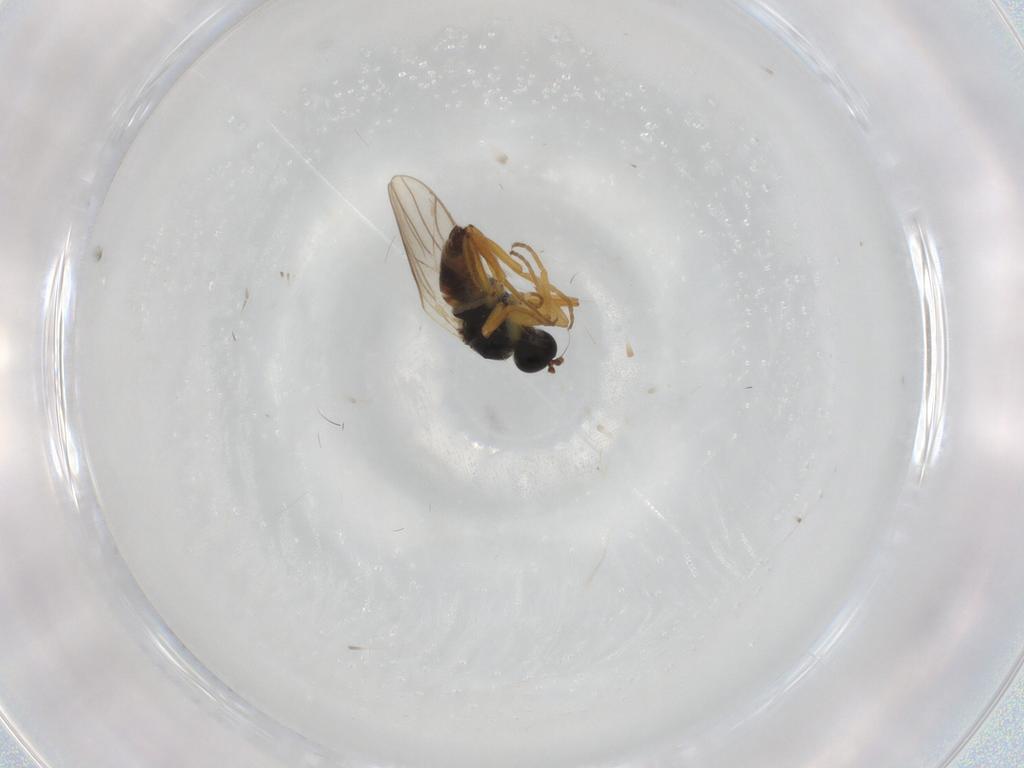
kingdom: Animalia
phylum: Arthropoda
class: Insecta
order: Diptera
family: Hybotidae
